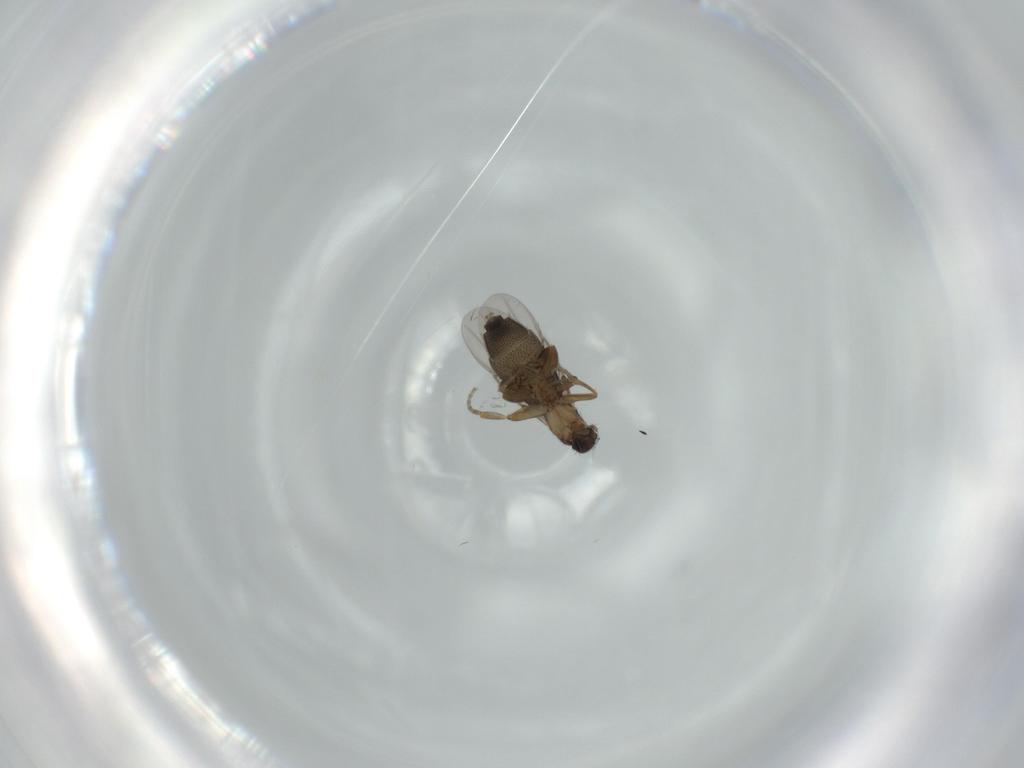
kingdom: Animalia
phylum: Arthropoda
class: Insecta
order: Diptera
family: Phoridae
